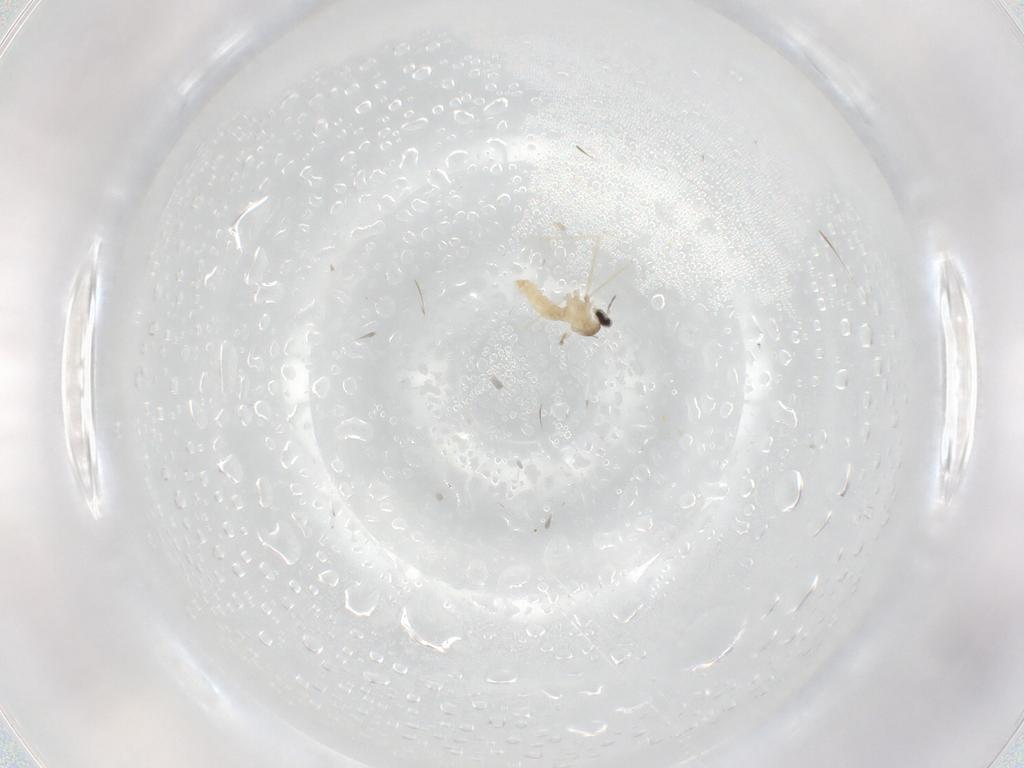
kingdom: Animalia
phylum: Arthropoda
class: Insecta
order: Diptera
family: Cecidomyiidae
